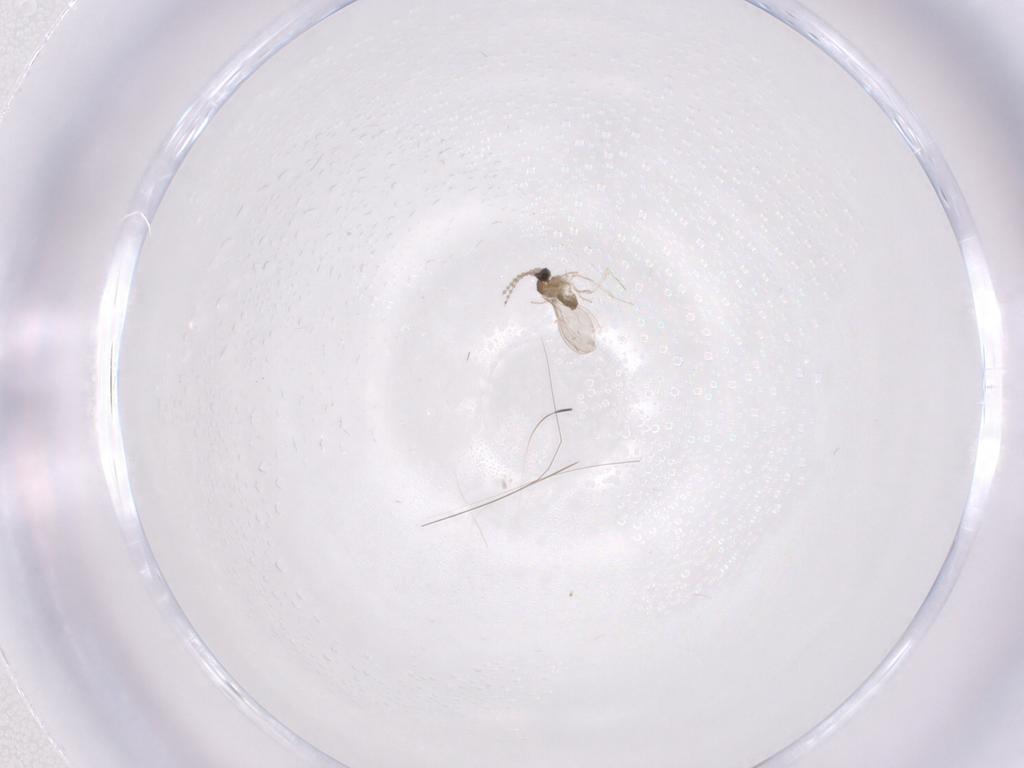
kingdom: Animalia
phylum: Arthropoda
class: Insecta
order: Diptera
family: Cecidomyiidae
